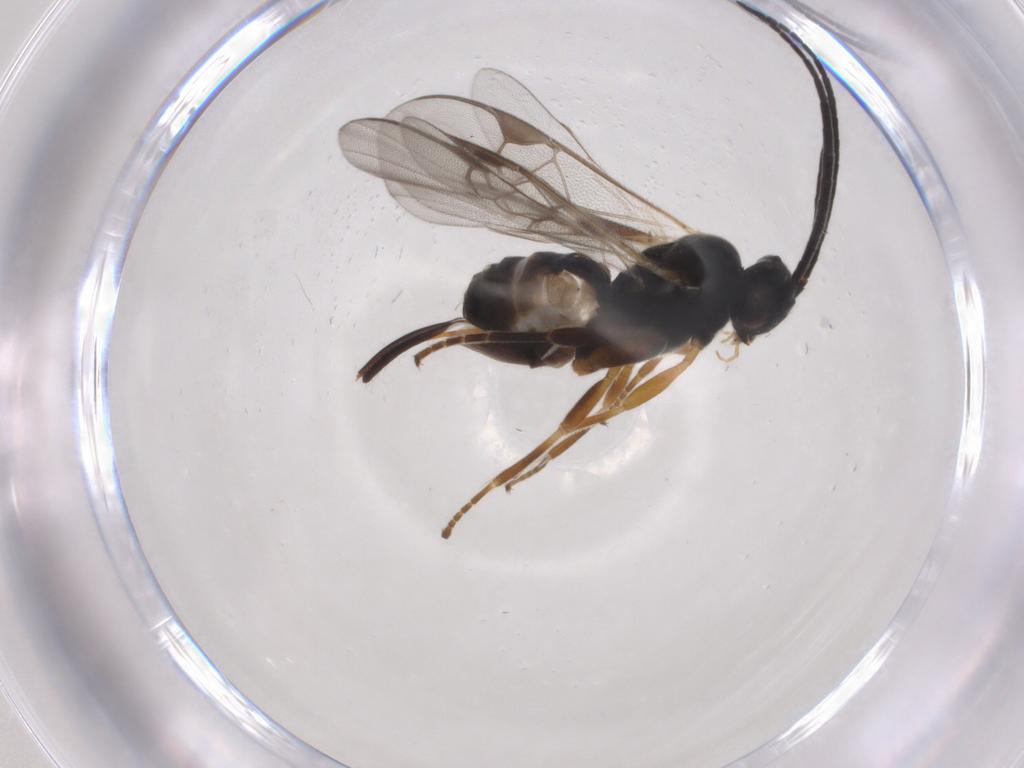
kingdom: Animalia
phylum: Arthropoda
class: Insecta
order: Hymenoptera
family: Braconidae
